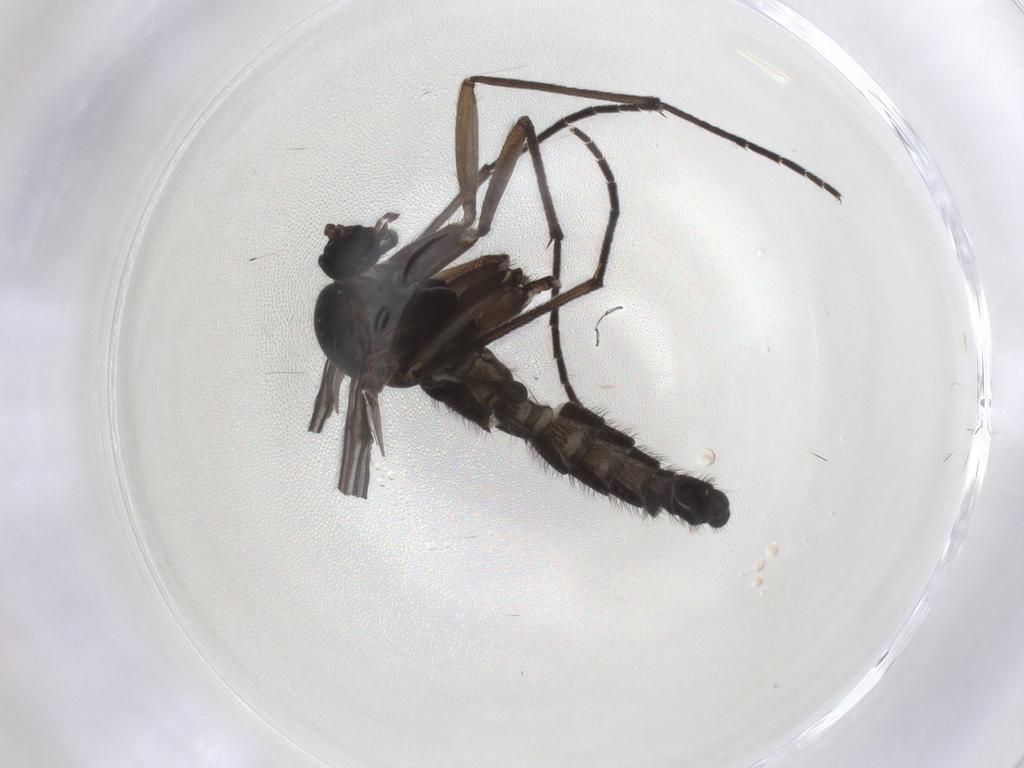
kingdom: Animalia
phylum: Arthropoda
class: Insecta
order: Diptera
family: Sciaridae
